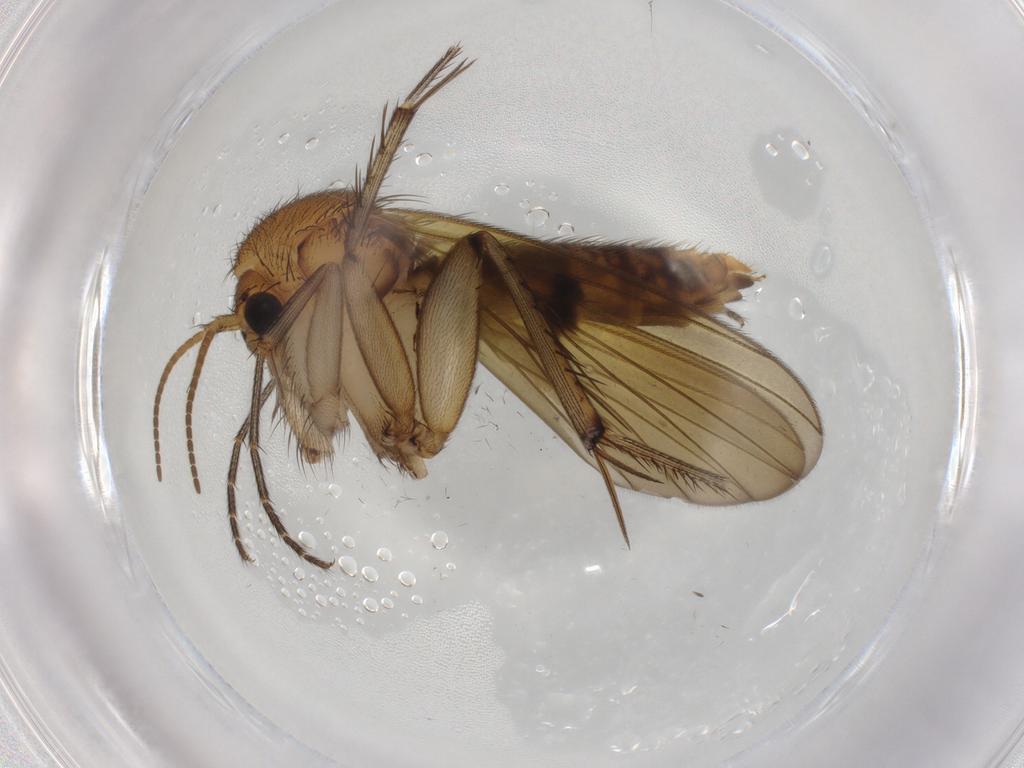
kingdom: Animalia
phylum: Arthropoda
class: Insecta
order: Diptera
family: Mycetophilidae
